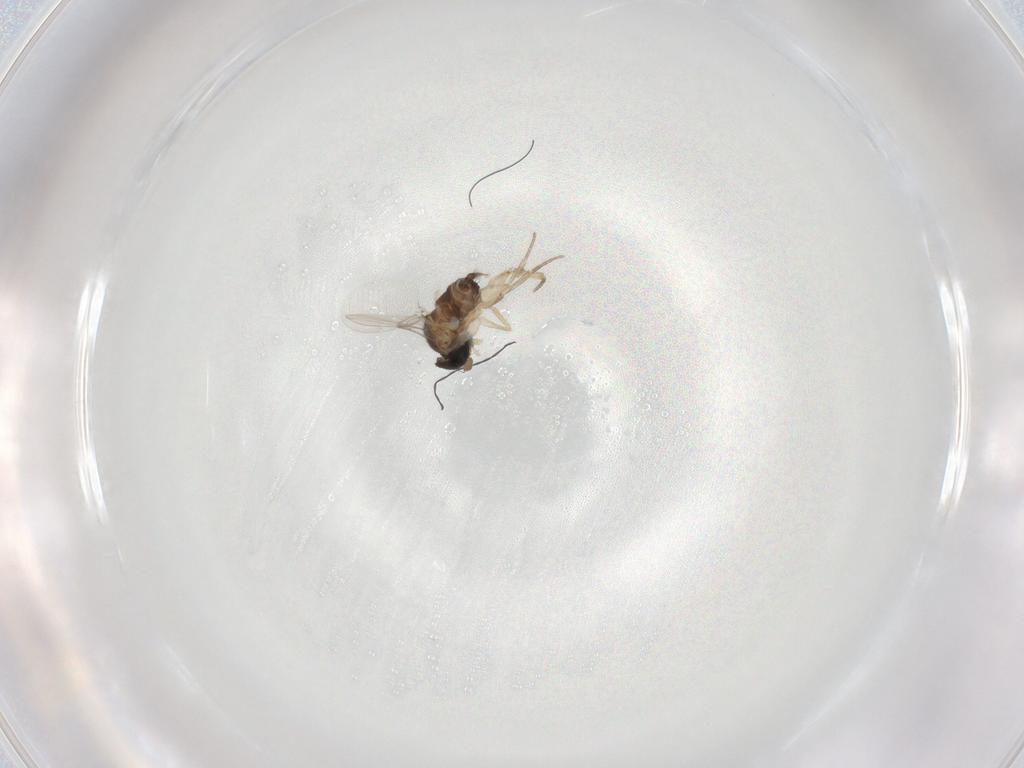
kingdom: Animalia
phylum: Arthropoda
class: Insecta
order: Diptera
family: Phoridae
